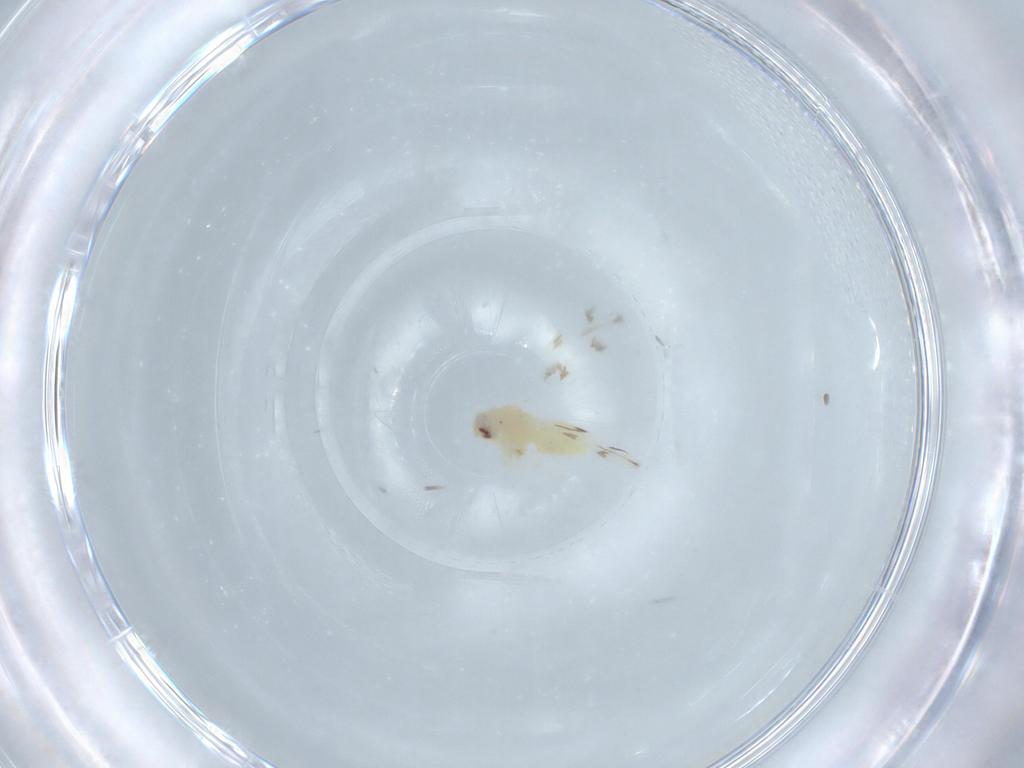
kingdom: Animalia
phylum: Arthropoda
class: Insecta
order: Hemiptera
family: Aleyrodidae
